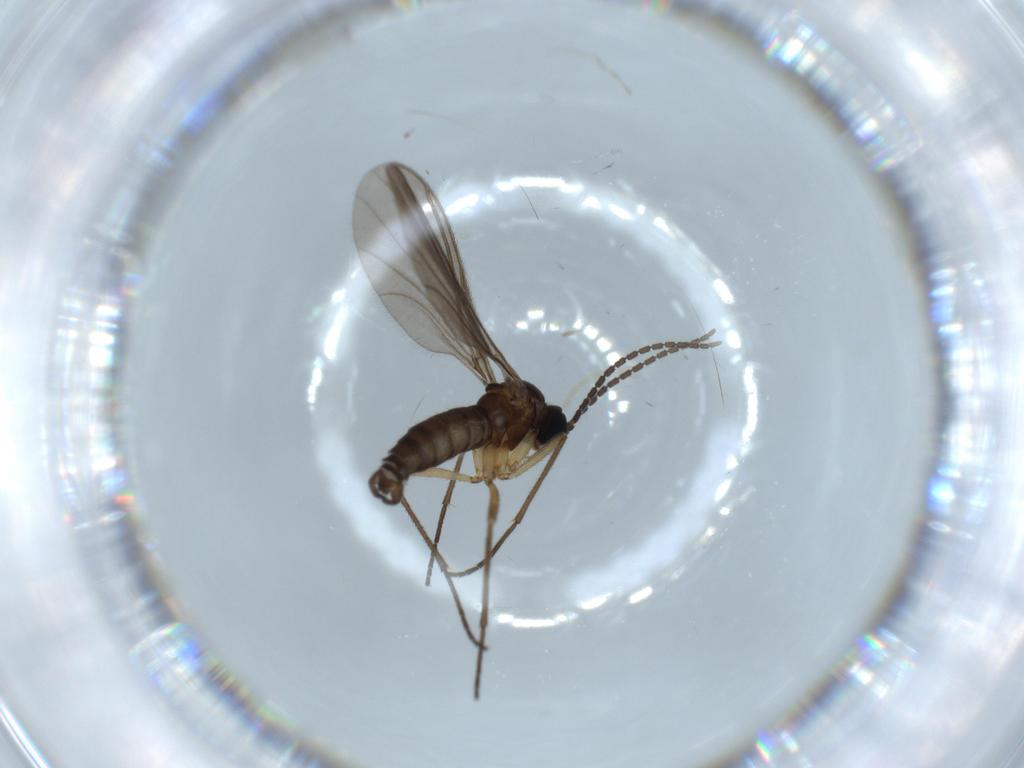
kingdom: Animalia
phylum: Arthropoda
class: Insecta
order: Diptera
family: Sciaridae
